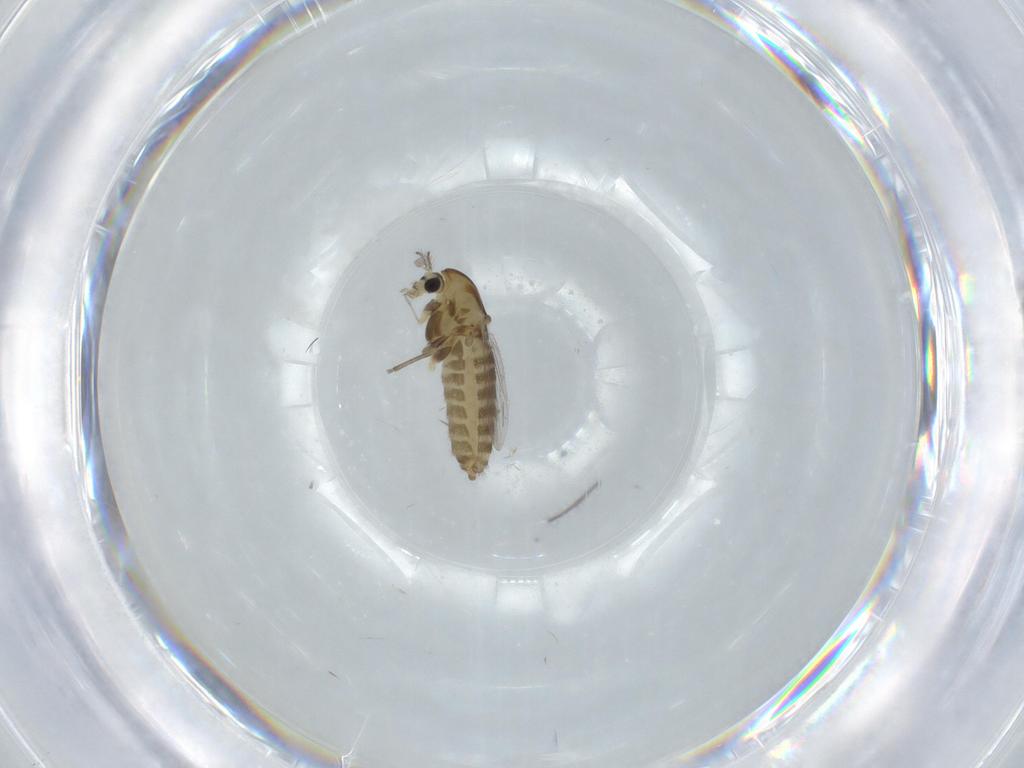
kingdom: Animalia
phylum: Arthropoda
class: Insecta
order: Diptera
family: Chironomidae
